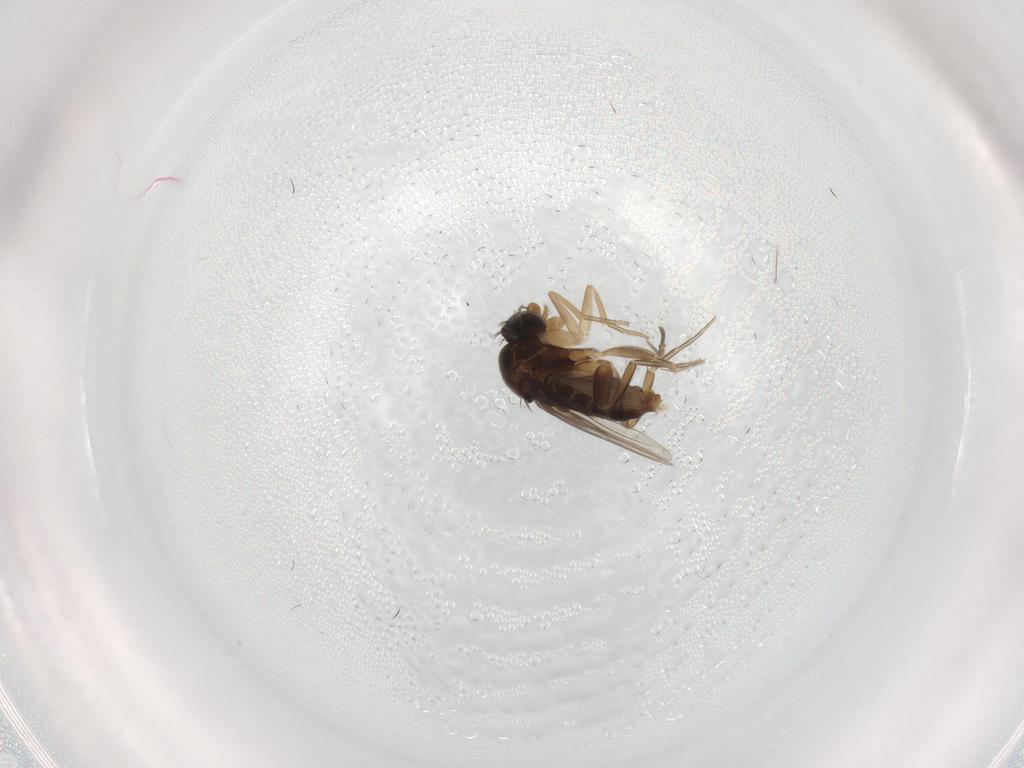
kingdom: Animalia
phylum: Arthropoda
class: Insecta
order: Diptera
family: Phoridae
